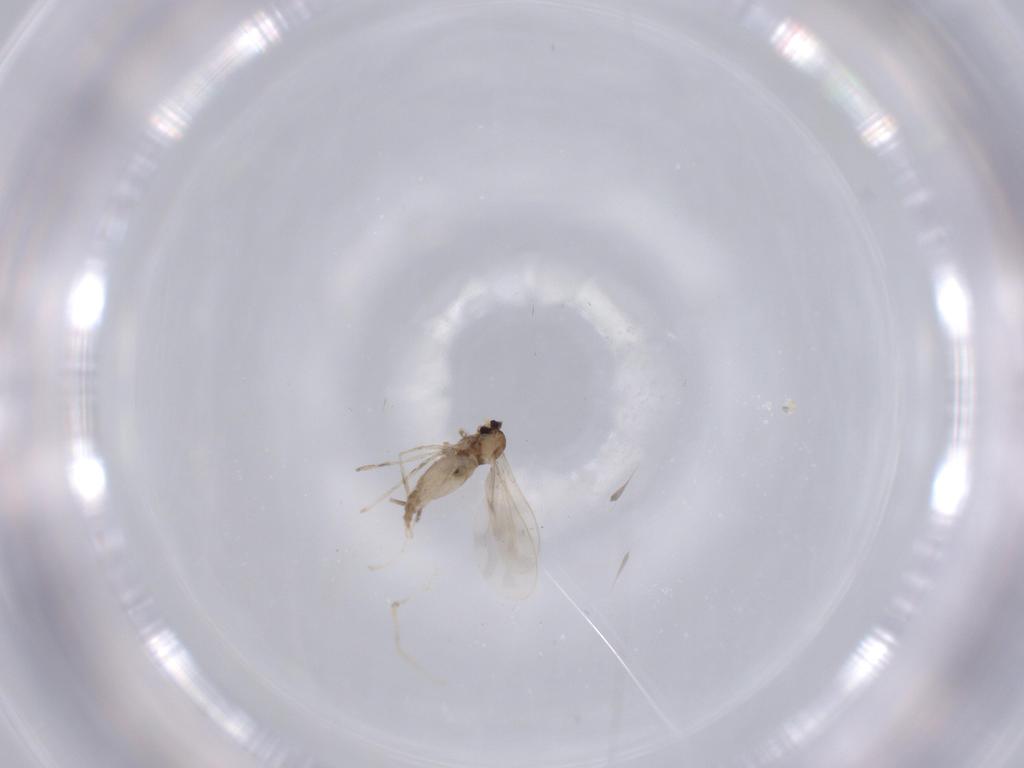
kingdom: Animalia
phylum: Arthropoda
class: Insecta
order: Diptera
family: Cecidomyiidae
